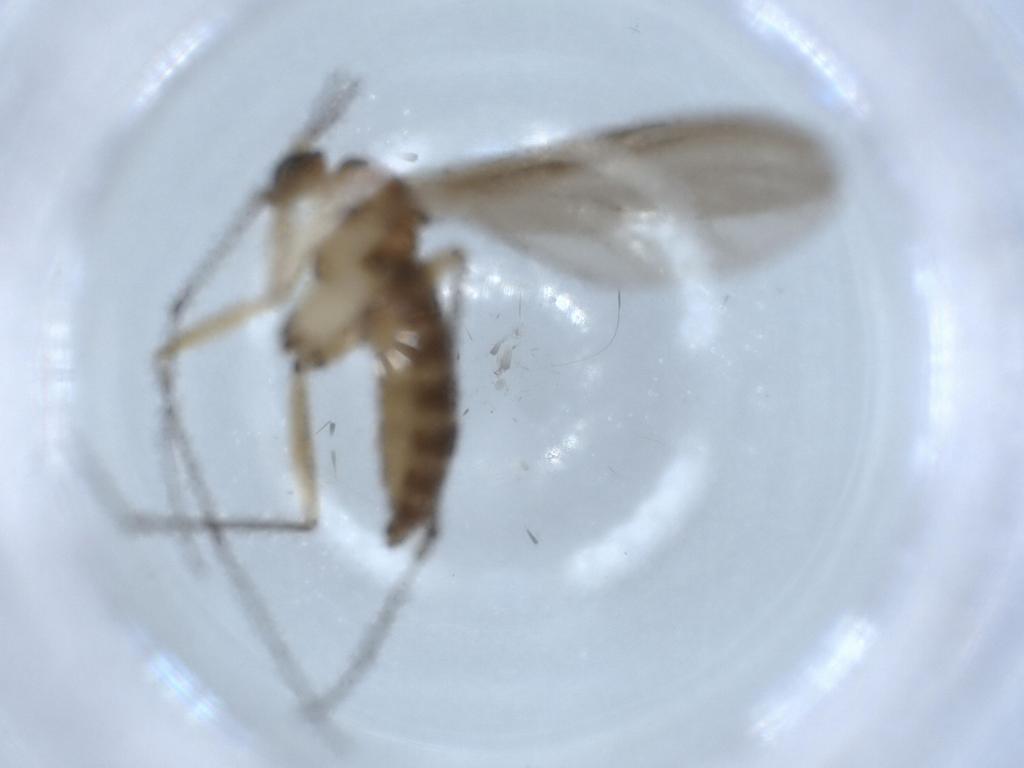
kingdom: Animalia
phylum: Arthropoda
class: Insecta
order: Diptera
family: Sciaridae
